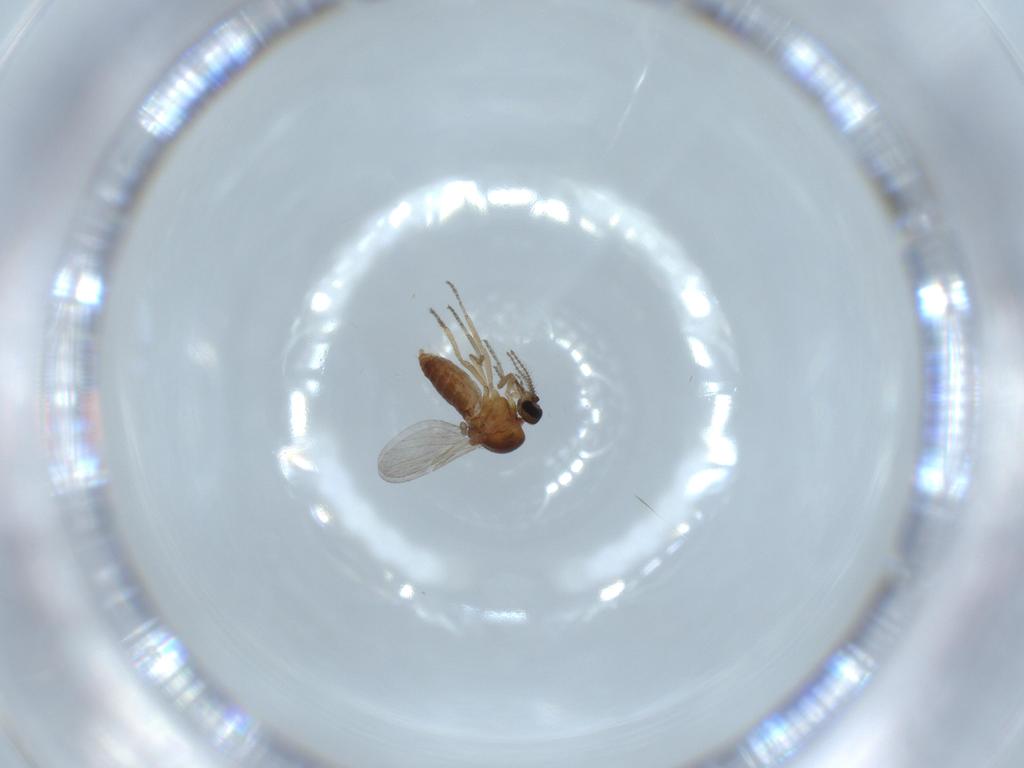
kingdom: Animalia
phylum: Arthropoda
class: Insecta
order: Diptera
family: Ceratopogonidae
